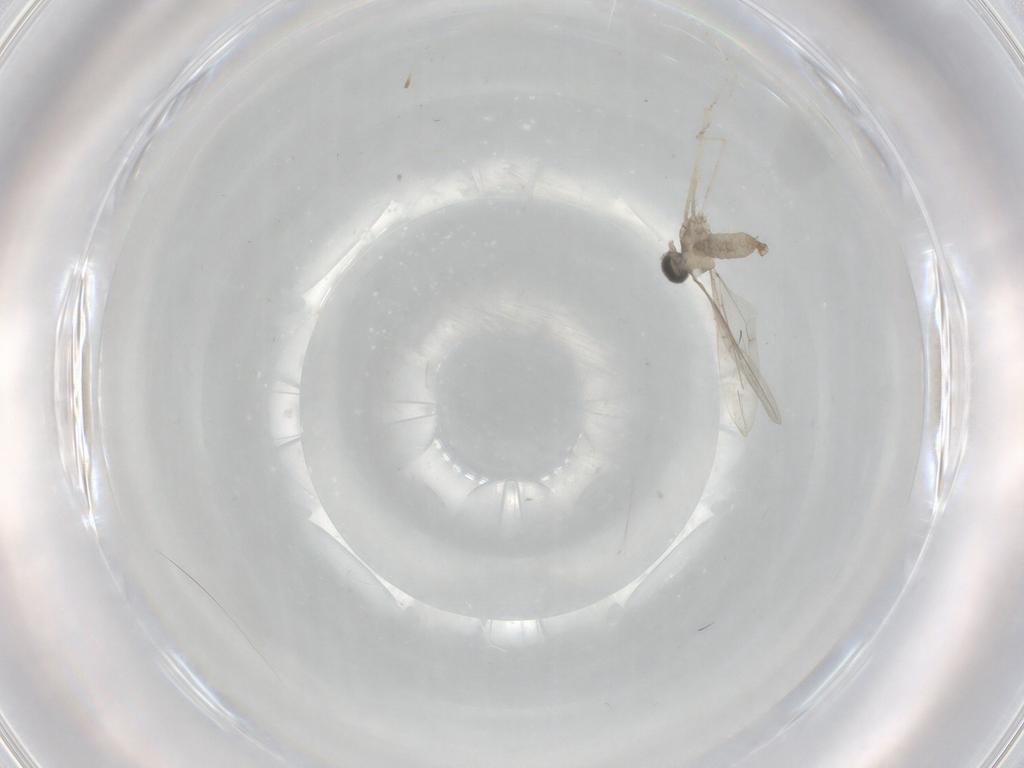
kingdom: Animalia
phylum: Arthropoda
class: Insecta
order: Diptera
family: Cecidomyiidae
